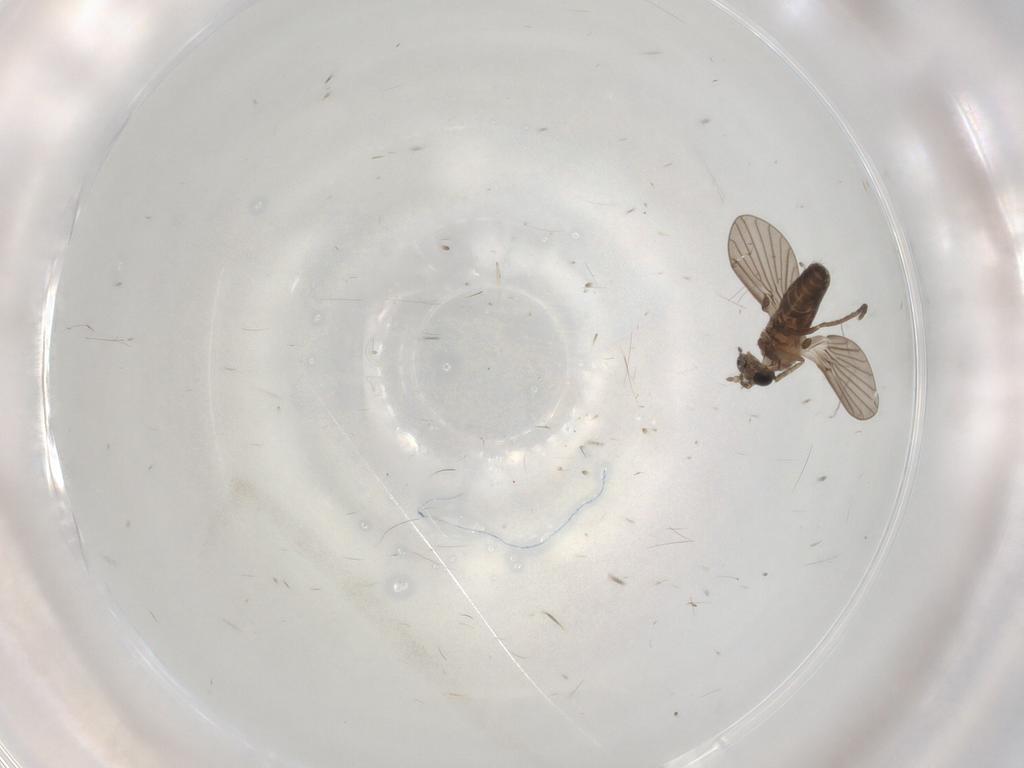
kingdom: Animalia
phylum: Arthropoda
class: Insecta
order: Diptera
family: Psychodidae
